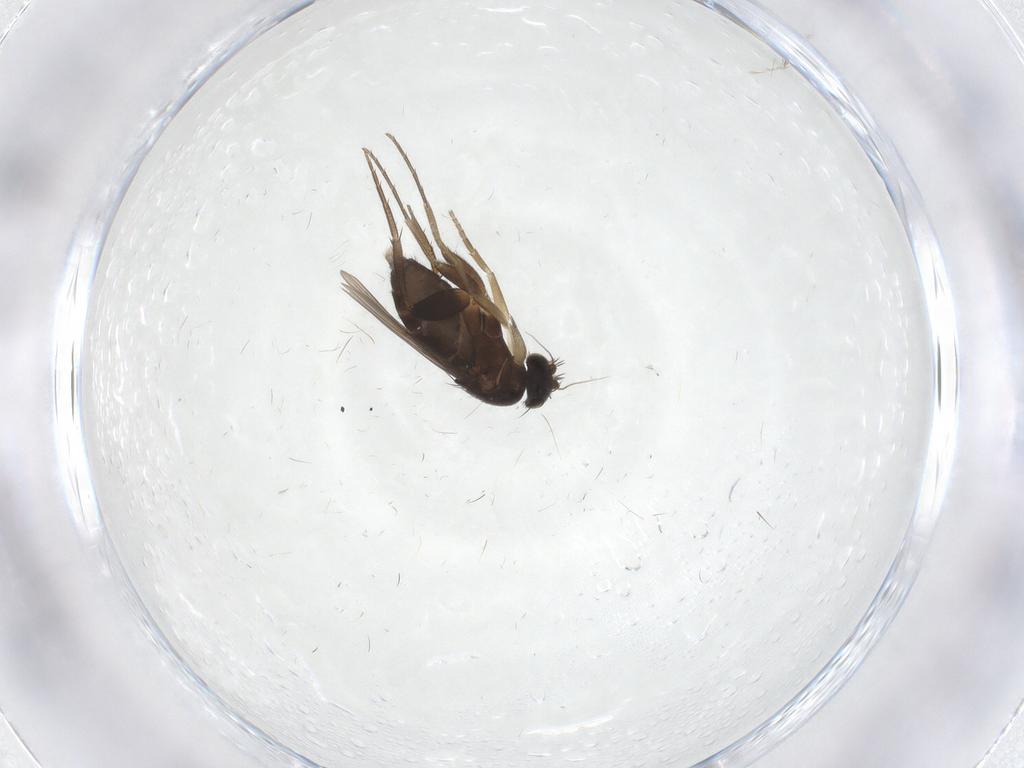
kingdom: Animalia
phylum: Arthropoda
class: Insecta
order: Diptera
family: Phoridae
